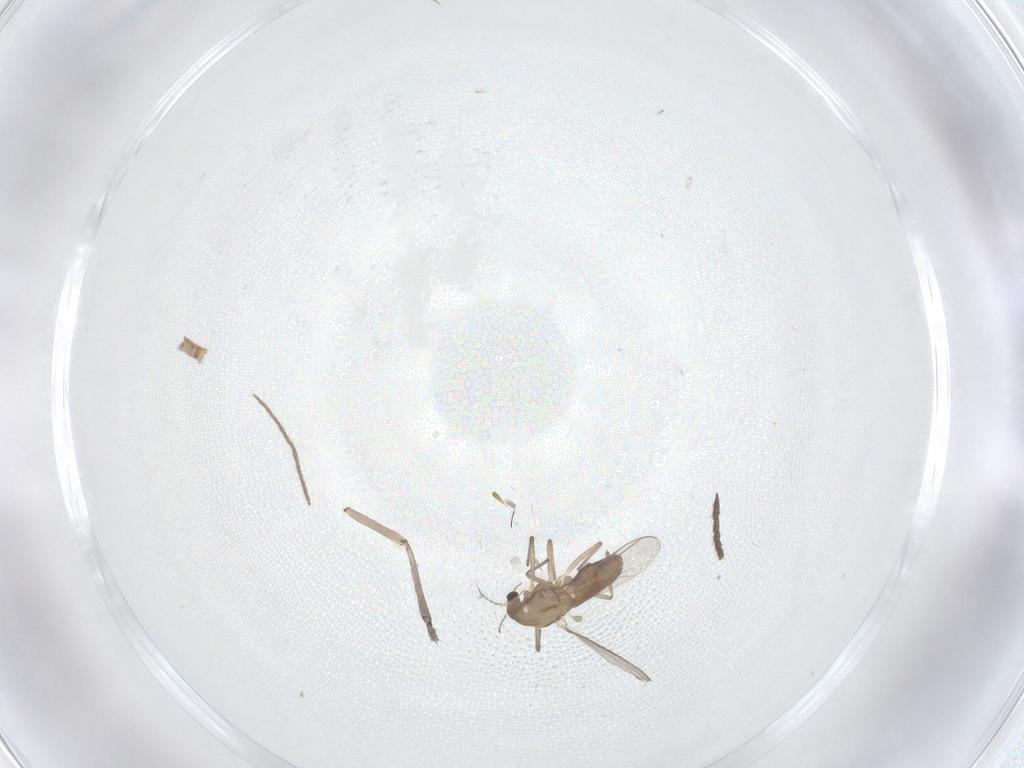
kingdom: Animalia
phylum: Arthropoda
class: Insecta
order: Diptera
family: Psychodidae
